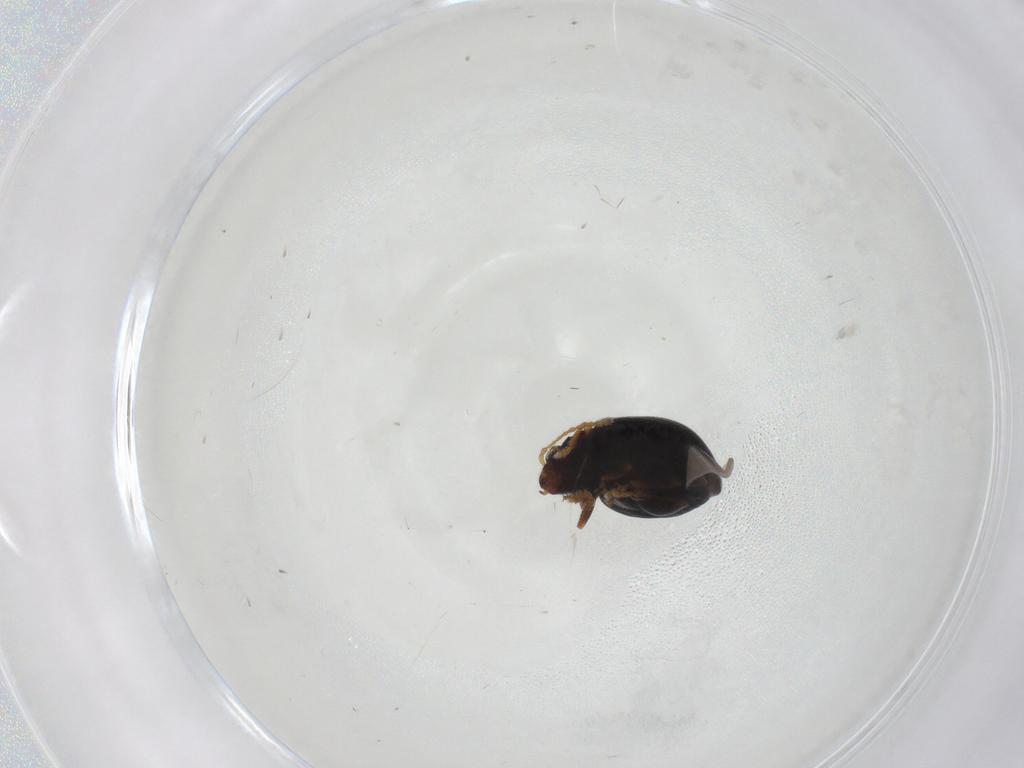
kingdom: Animalia
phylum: Arthropoda
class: Insecta
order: Coleoptera
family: Chrysomelidae
